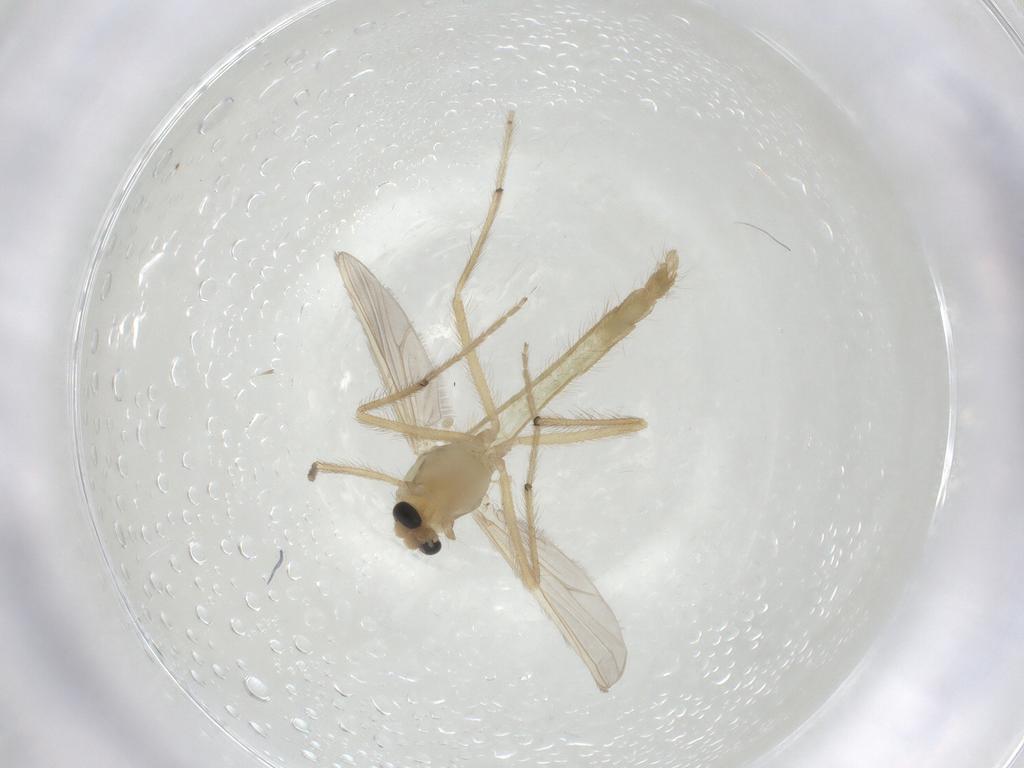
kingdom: Animalia
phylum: Arthropoda
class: Insecta
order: Diptera
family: Chironomidae
